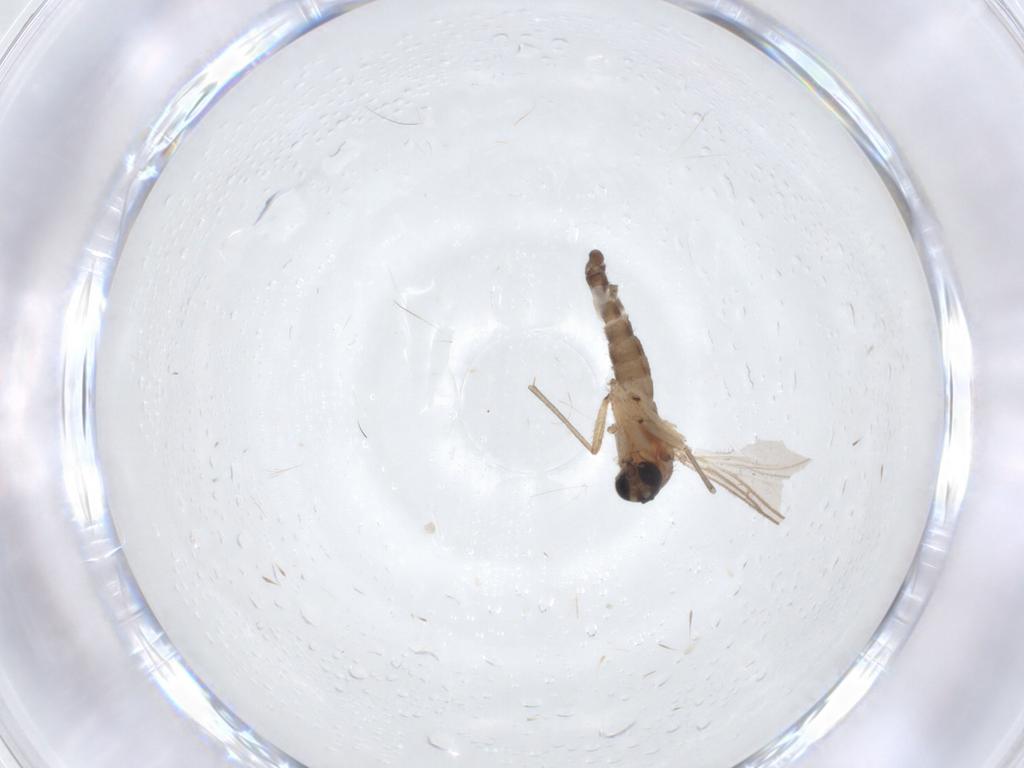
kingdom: Animalia
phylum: Arthropoda
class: Insecta
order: Diptera
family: Sciaridae
